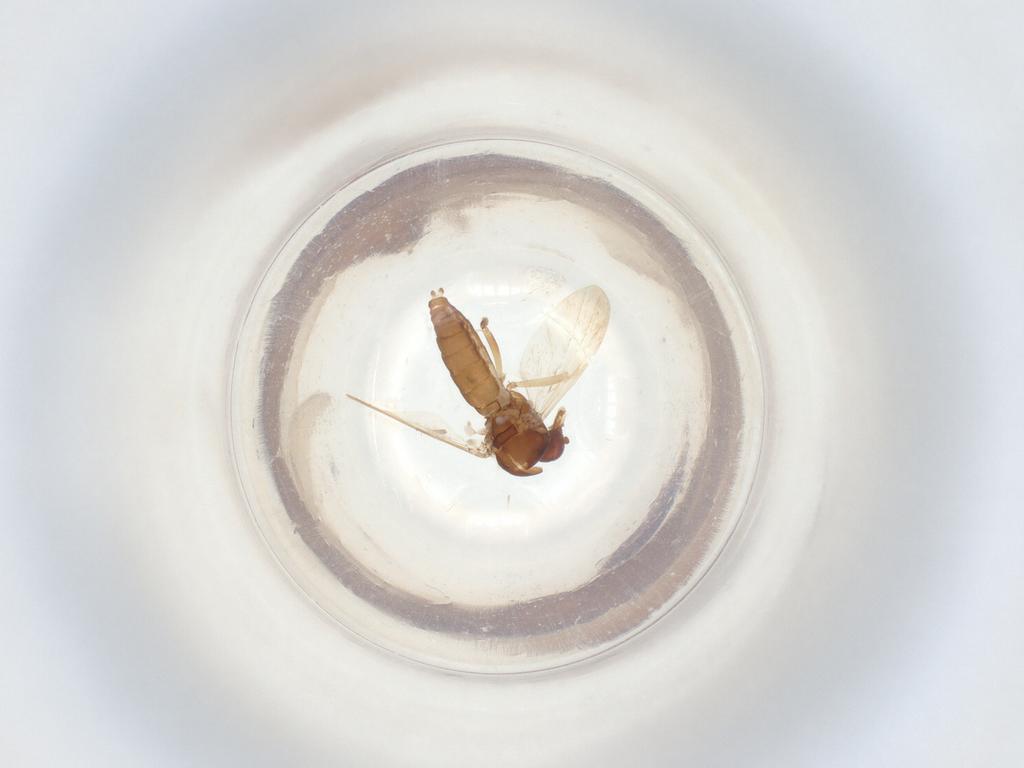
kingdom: Animalia
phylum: Arthropoda
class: Insecta
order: Diptera
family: Ceratopogonidae
